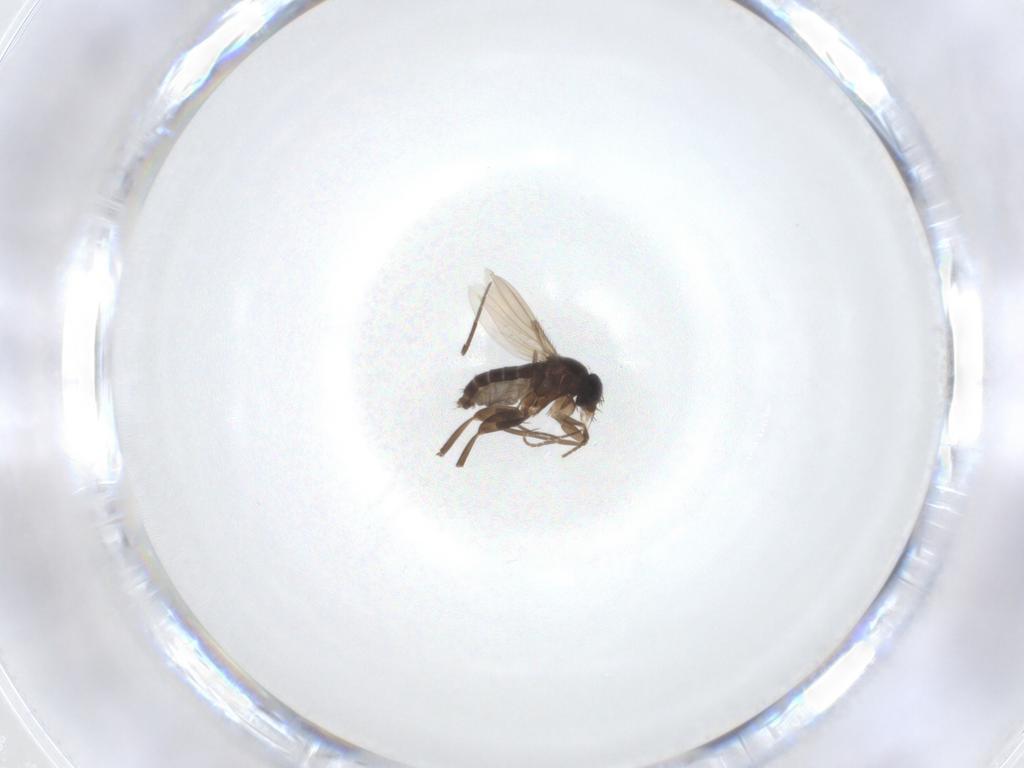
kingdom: Animalia
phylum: Arthropoda
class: Insecta
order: Diptera
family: Phoridae
